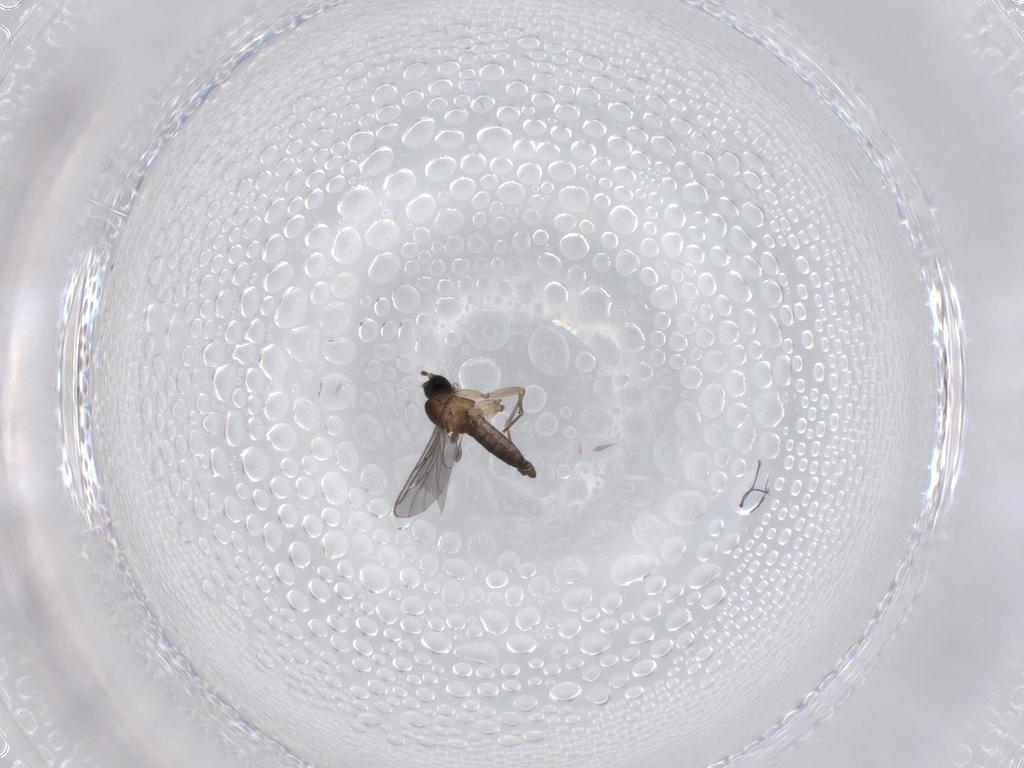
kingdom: Animalia
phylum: Arthropoda
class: Insecta
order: Diptera
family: Sciaridae
